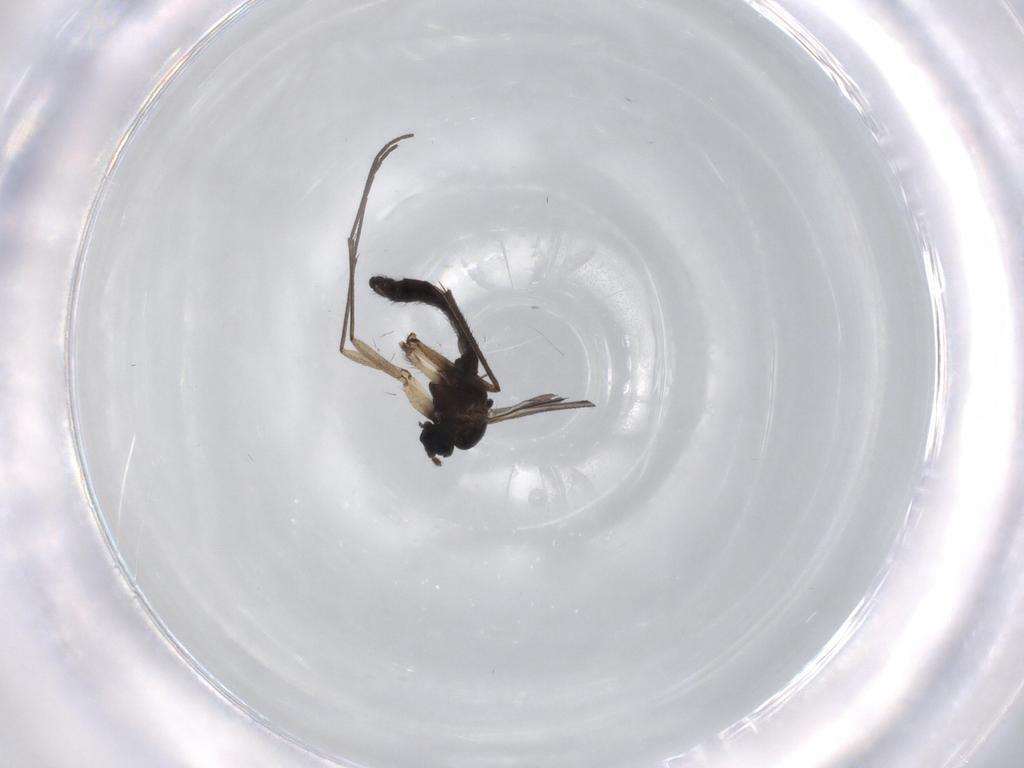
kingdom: Animalia
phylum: Arthropoda
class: Insecta
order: Diptera
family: Sciaridae
